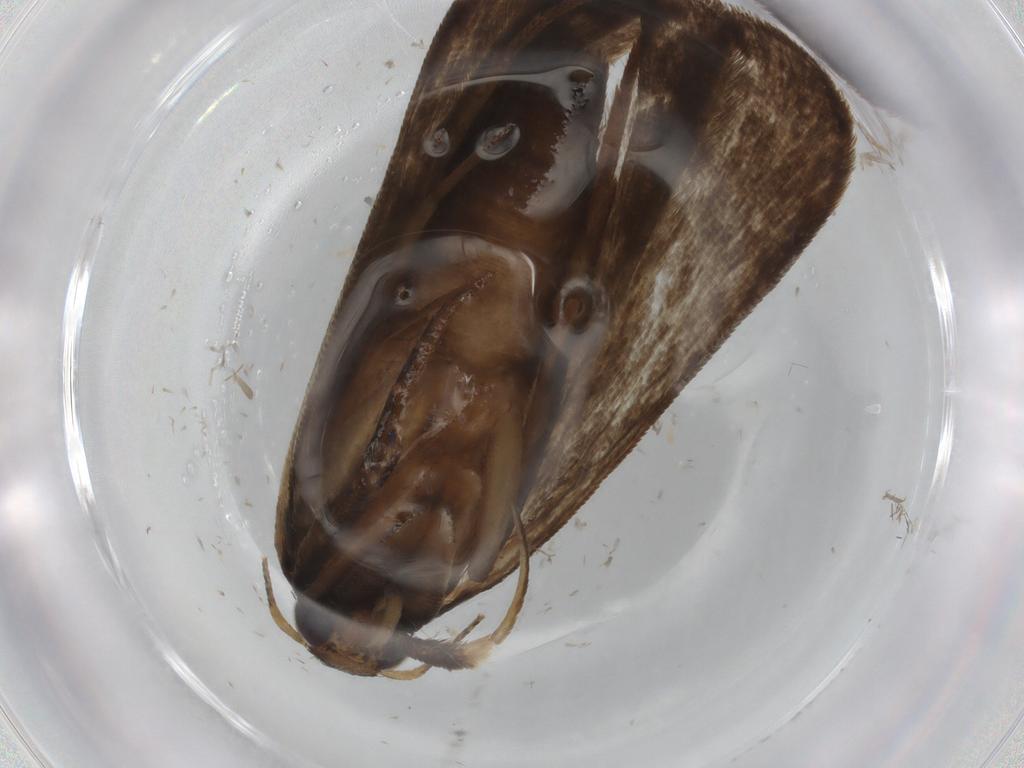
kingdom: Animalia
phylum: Arthropoda
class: Insecta
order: Lepidoptera
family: Gelechiidae
